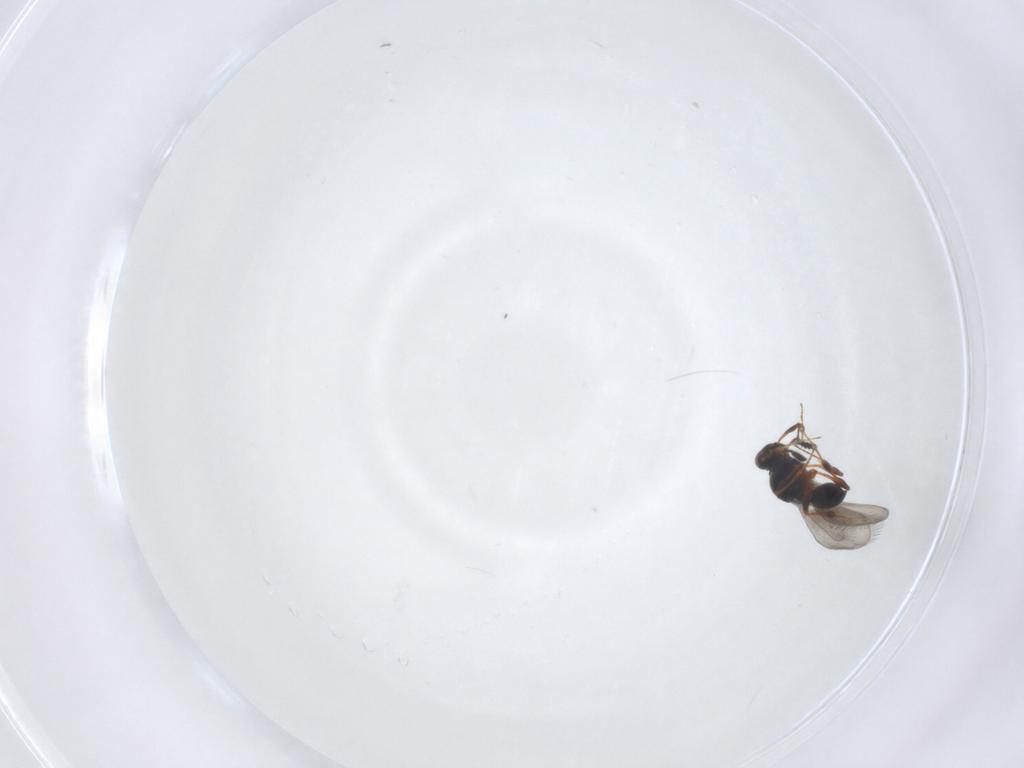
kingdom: Animalia
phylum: Arthropoda
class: Insecta
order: Hymenoptera
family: Platygastridae
